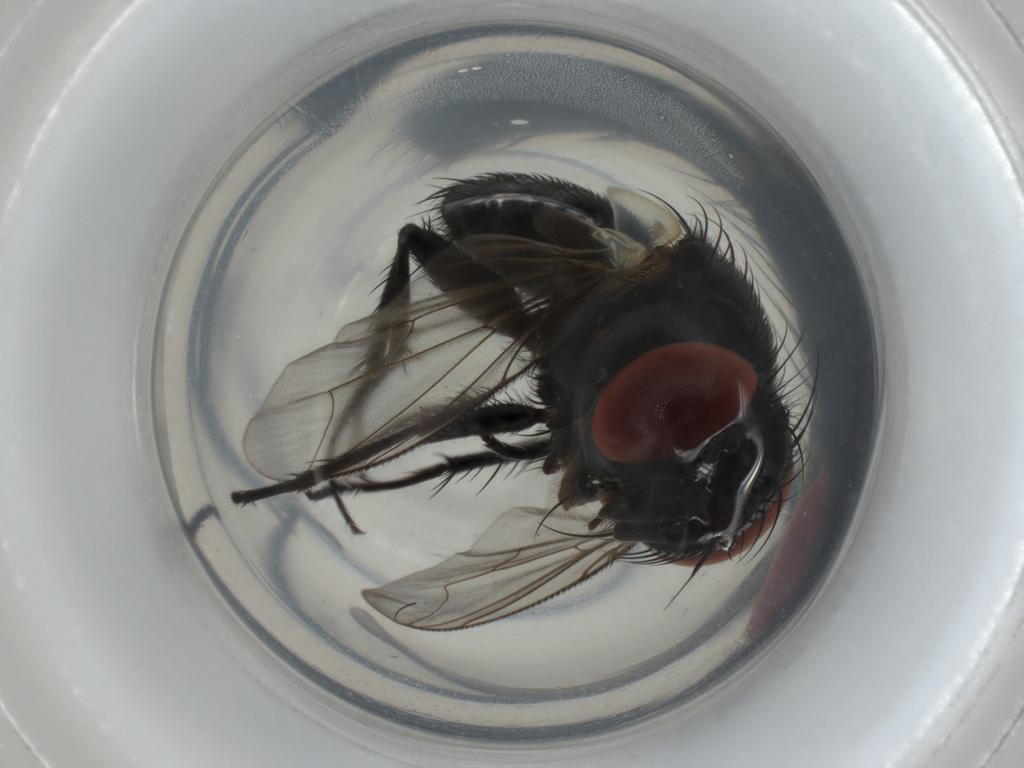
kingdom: Animalia
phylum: Arthropoda
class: Insecta
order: Diptera
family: Sarcophagidae
